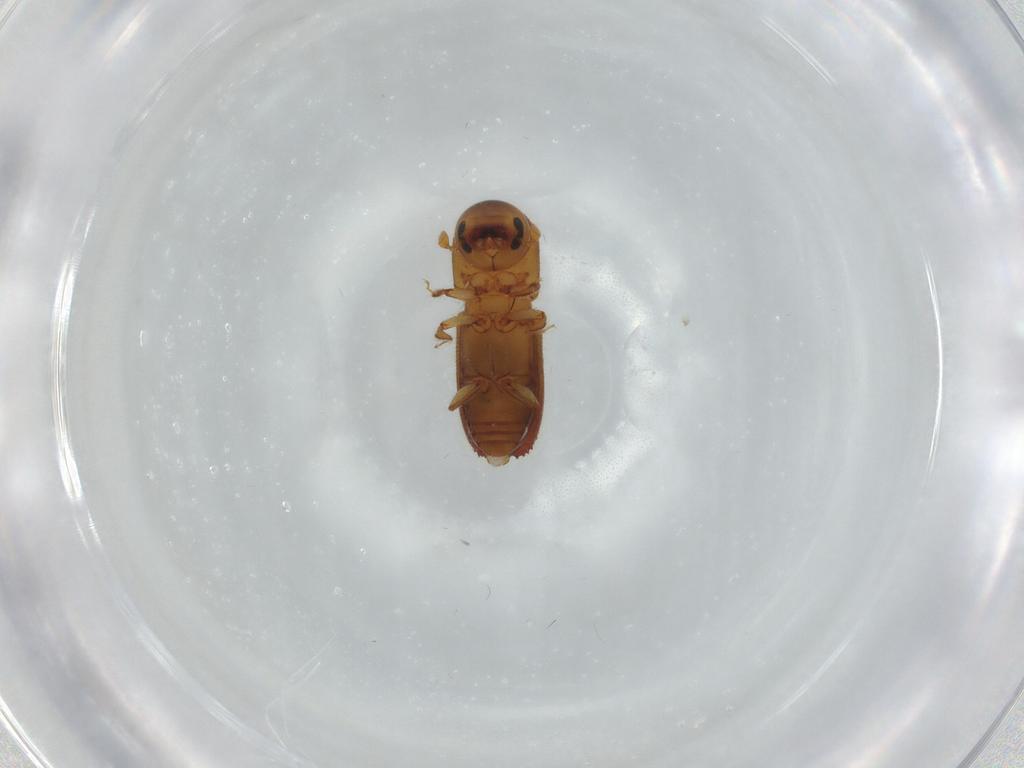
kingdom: Animalia
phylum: Arthropoda
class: Insecta
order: Coleoptera
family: Curculionidae
